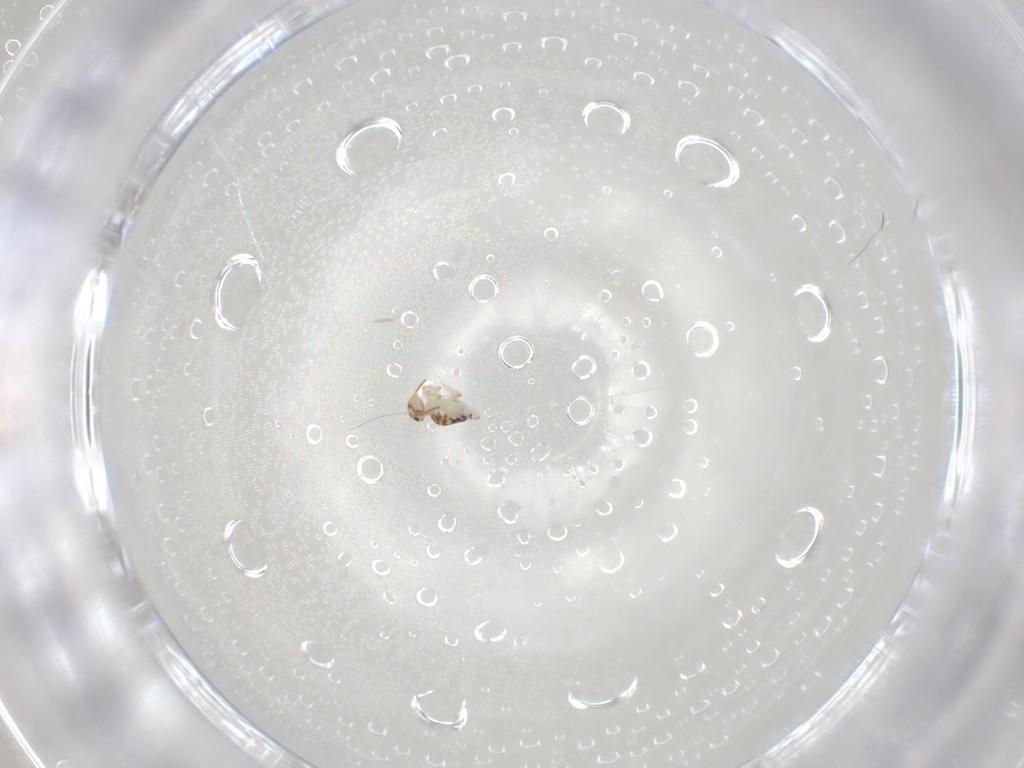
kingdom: Animalia
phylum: Arthropoda
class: Collembola
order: Symphypleona
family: Bourletiellidae
